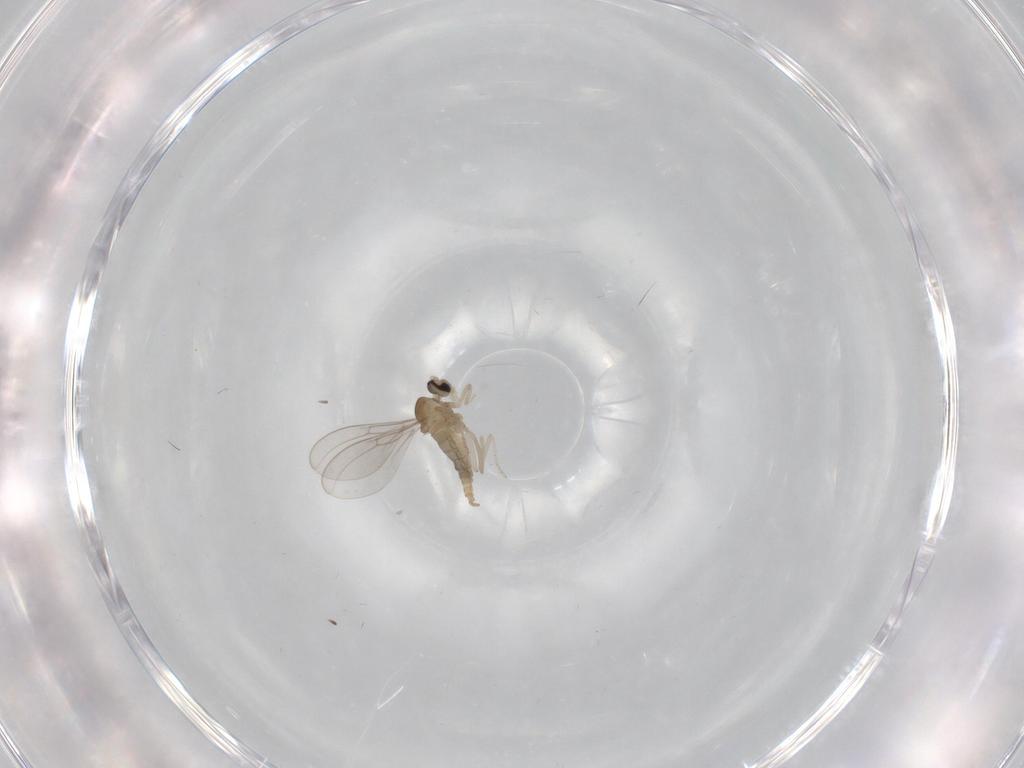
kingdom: Animalia
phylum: Arthropoda
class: Insecta
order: Diptera
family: Cecidomyiidae
